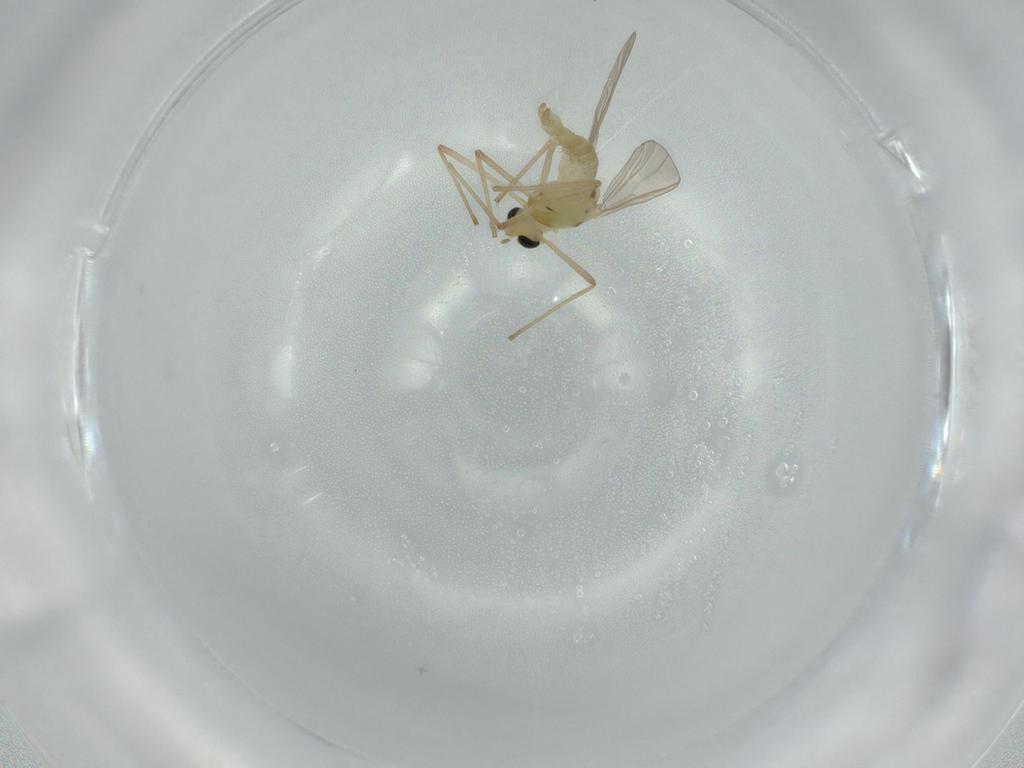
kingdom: Animalia
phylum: Arthropoda
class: Insecta
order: Diptera
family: Chironomidae
